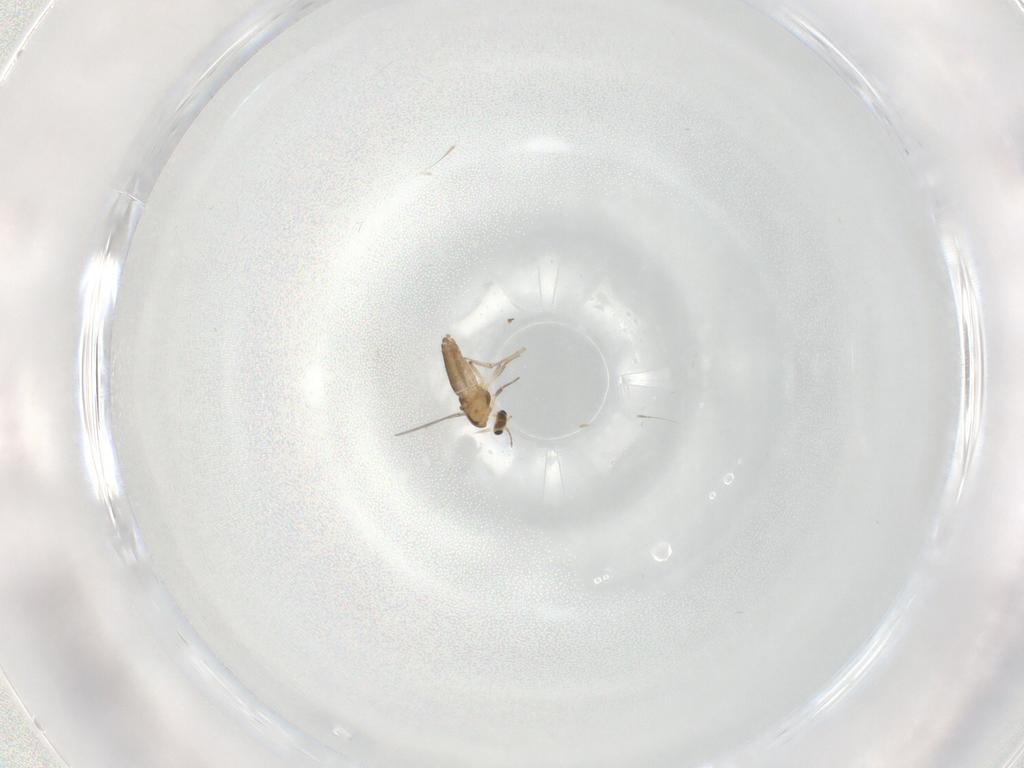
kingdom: Animalia
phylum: Arthropoda
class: Insecta
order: Diptera
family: Chironomidae
